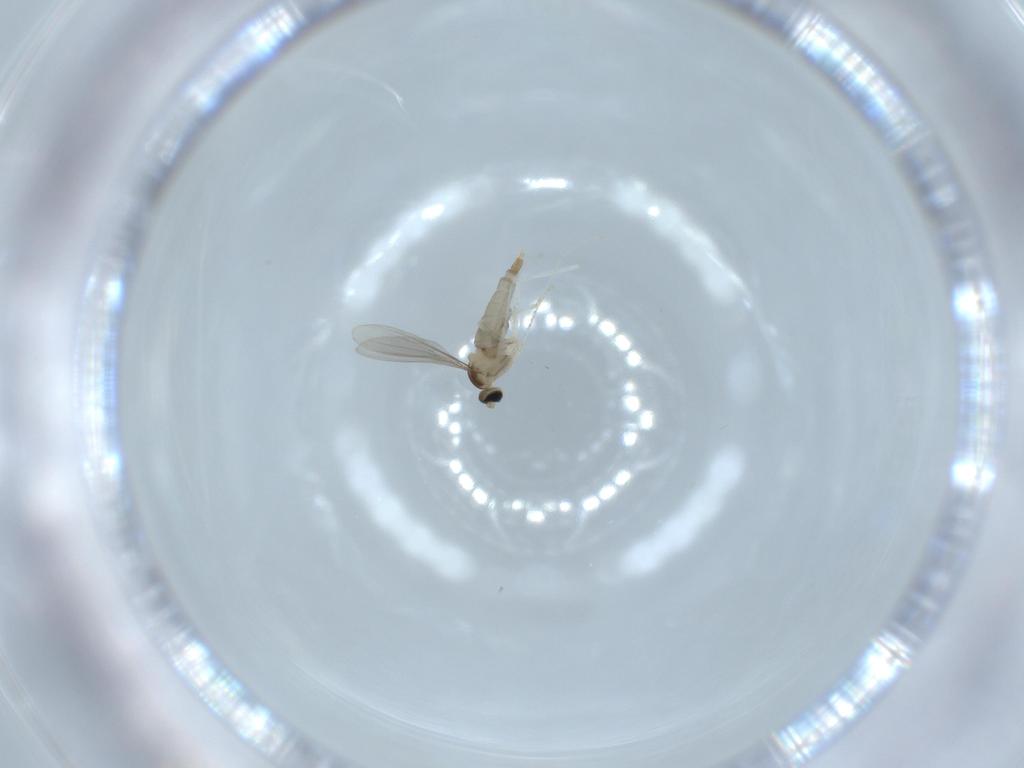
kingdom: Animalia
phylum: Arthropoda
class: Insecta
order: Diptera
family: Psychodidae
